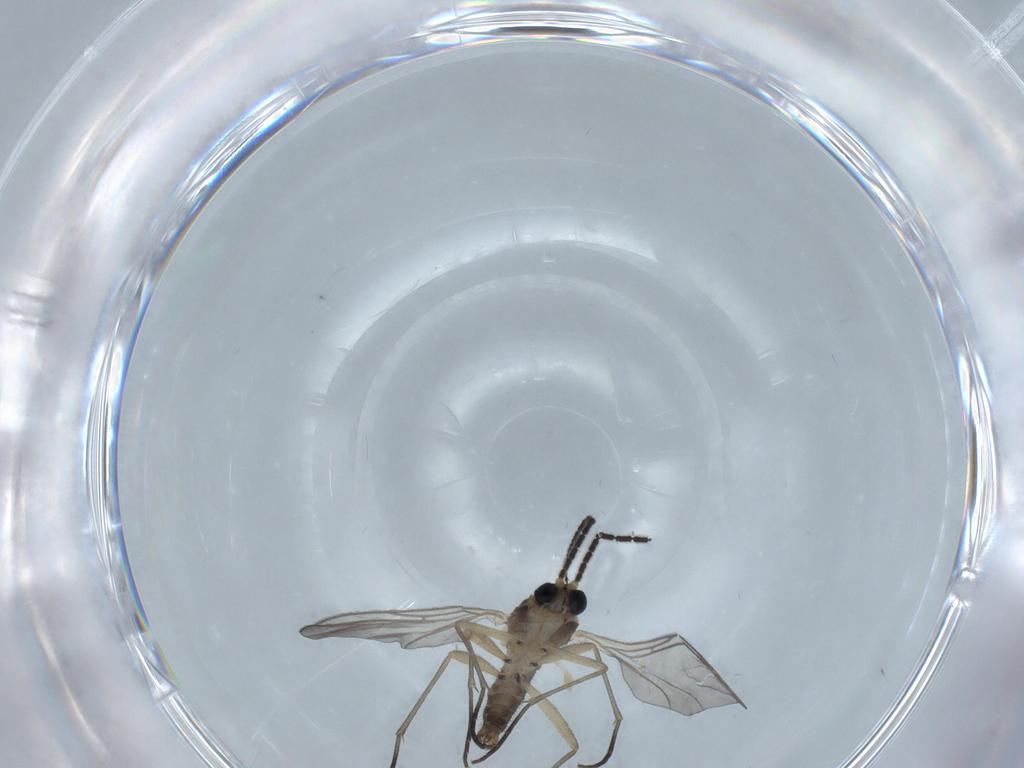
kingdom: Animalia
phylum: Arthropoda
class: Insecta
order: Diptera
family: Sciaridae
